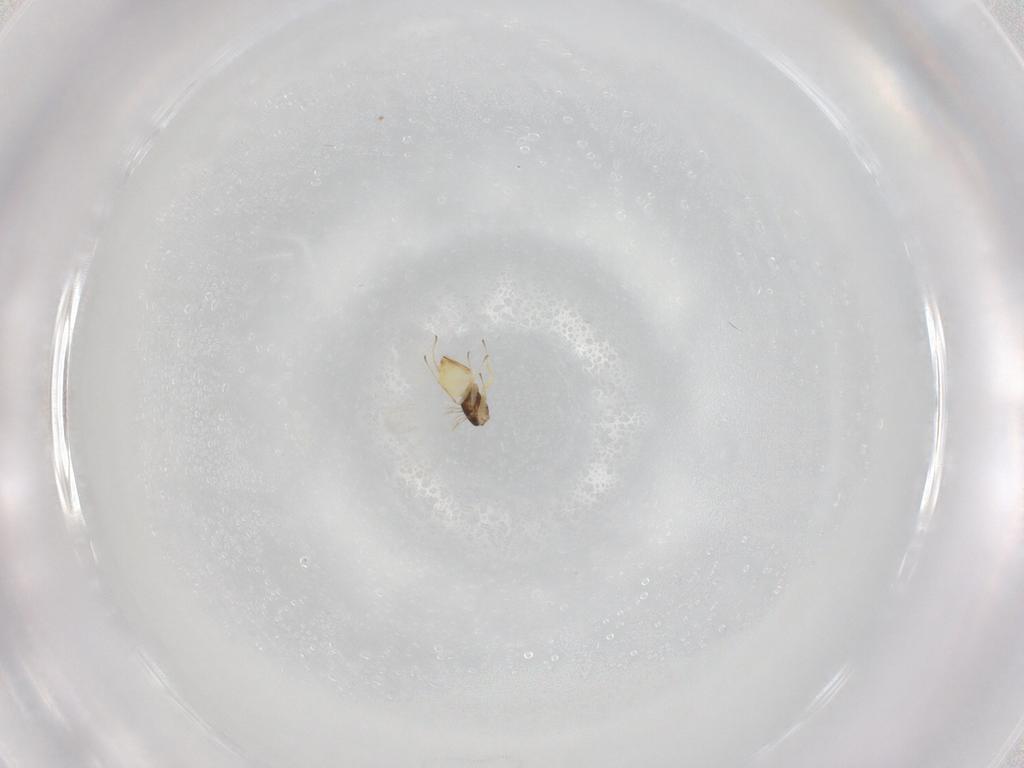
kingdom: Animalia
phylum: Arthropoda
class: Insecta
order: Hymenoptera
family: Mymaridae
